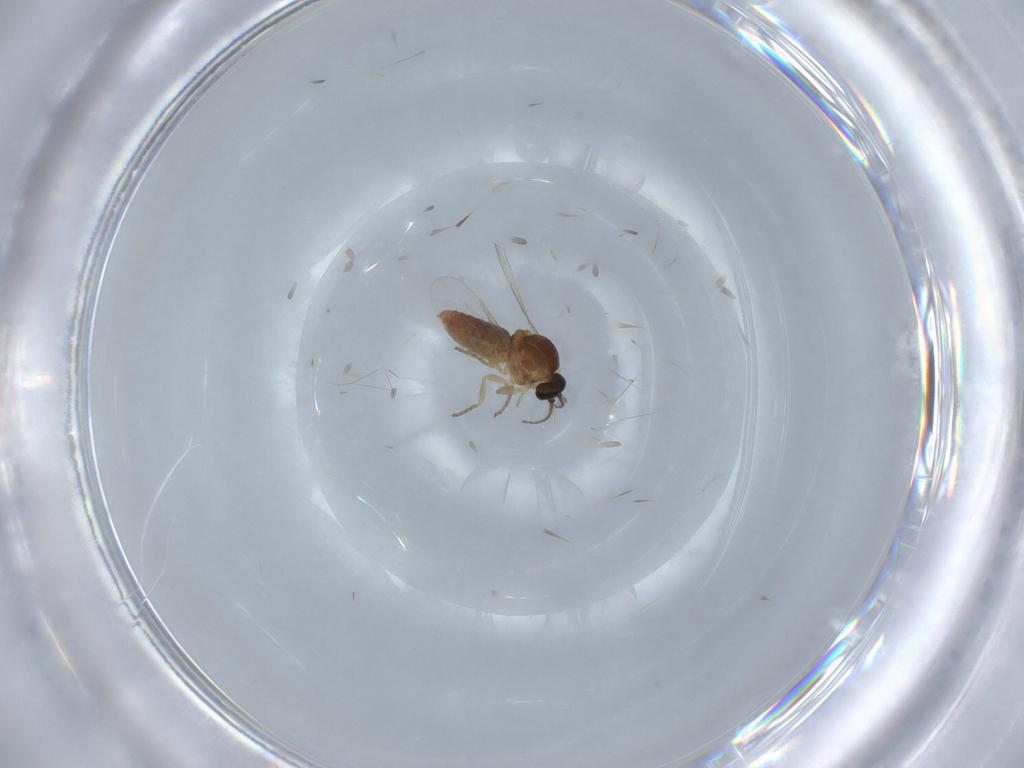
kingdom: Animalia
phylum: Arthropoda
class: Insecta
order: Diptera
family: Ceratopogonidae
